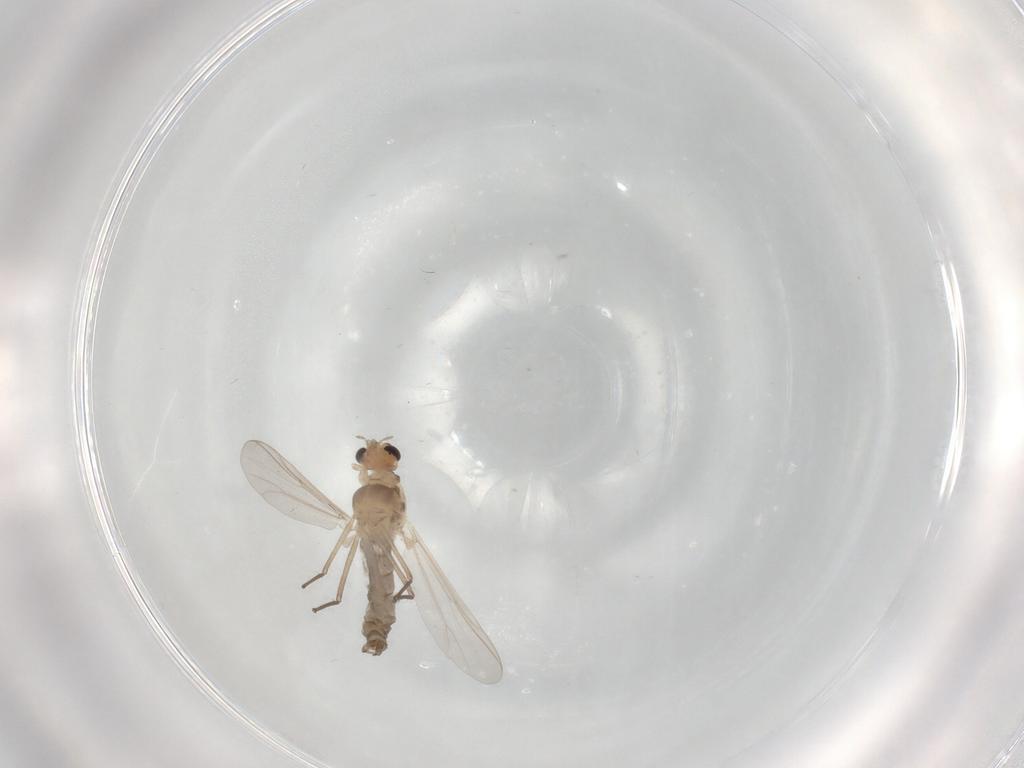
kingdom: Animalia
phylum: Arthropoda
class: Insecta
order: Diptera
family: Chironomidae
